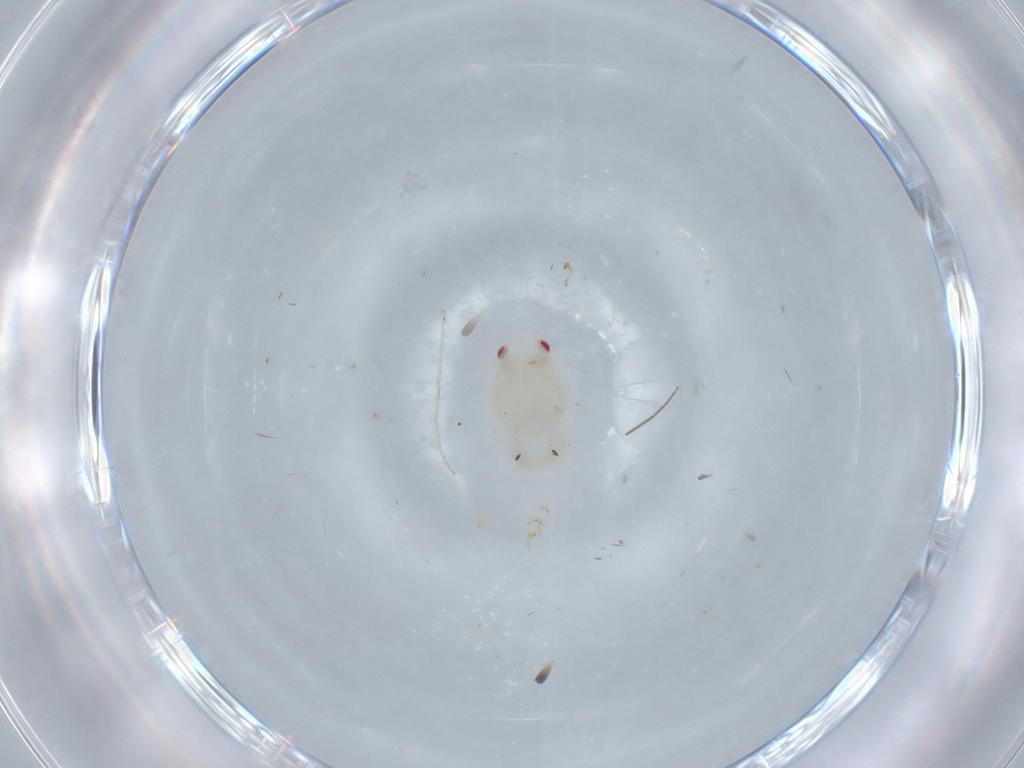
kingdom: Animalia
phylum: Arthropoda
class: Insecta
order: Hemiptera
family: Flatidae
